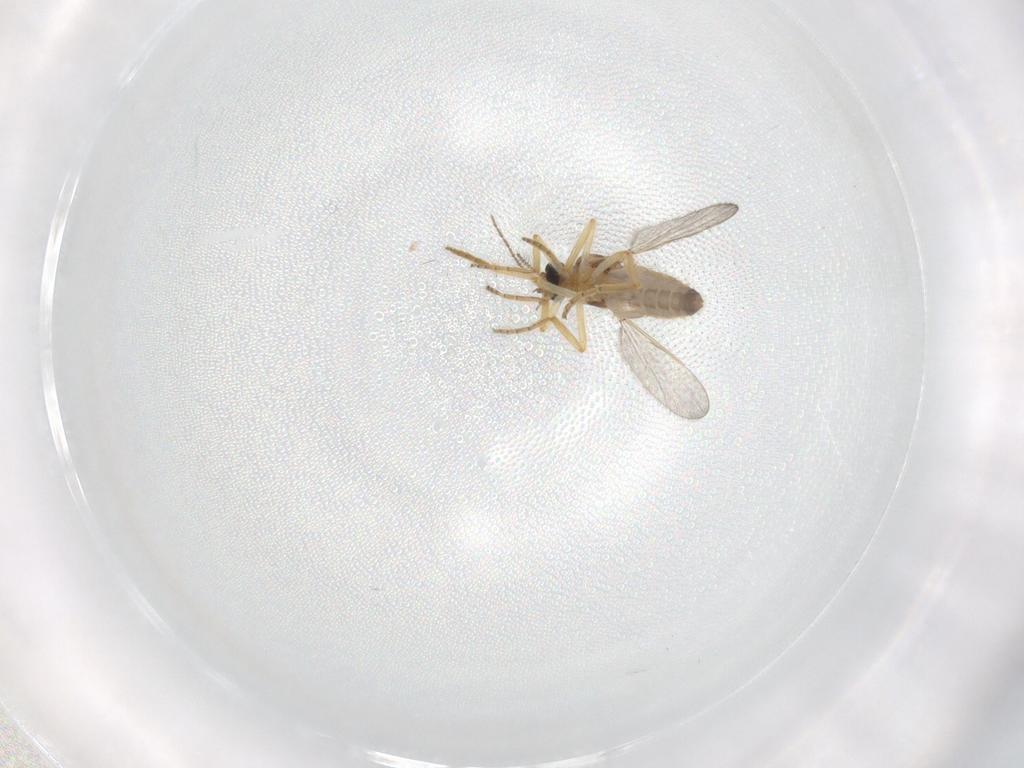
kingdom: Animalia
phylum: Arthropoda
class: Insecta
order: Diptera
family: Ceratopogonidae
